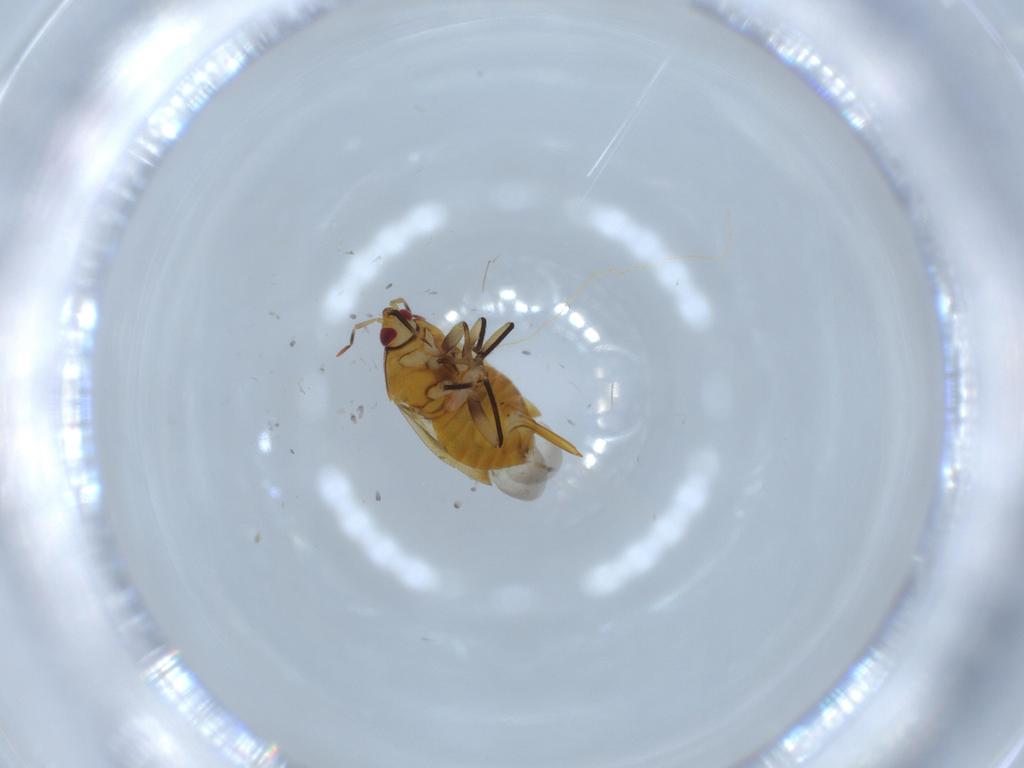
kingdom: Animalia
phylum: Arthropoda
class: Insecta
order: Hemiptera
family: Anthocoridae
